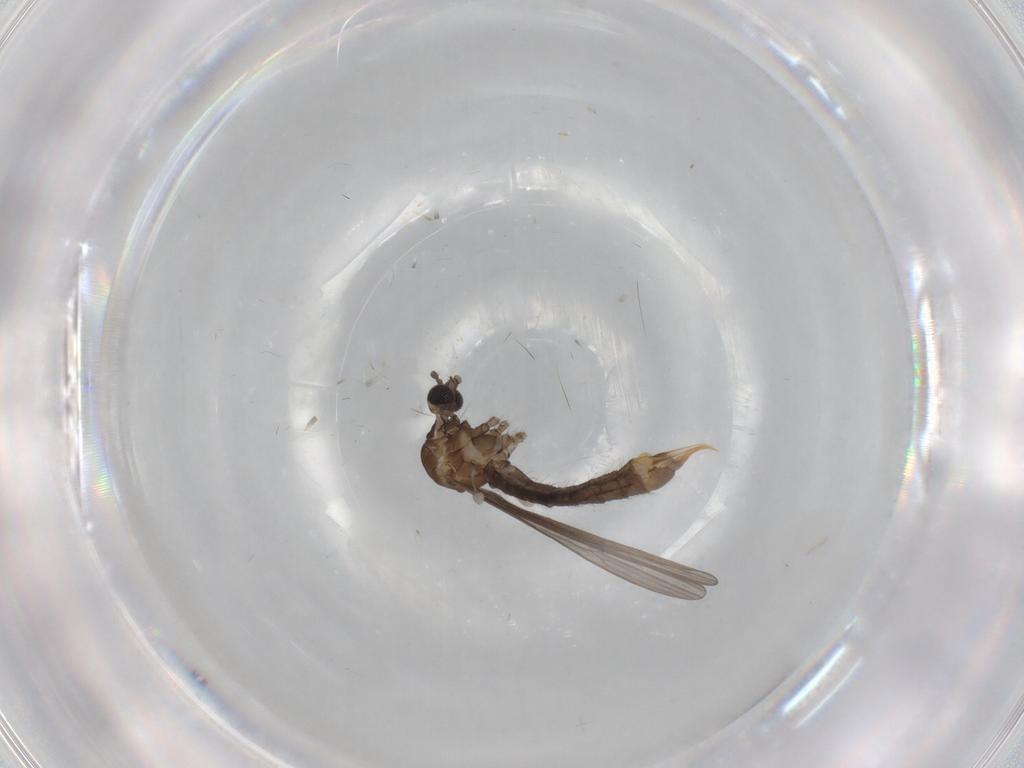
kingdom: Animalia
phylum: Arthropoda
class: Insecta
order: Diptera
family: Limoniidae
